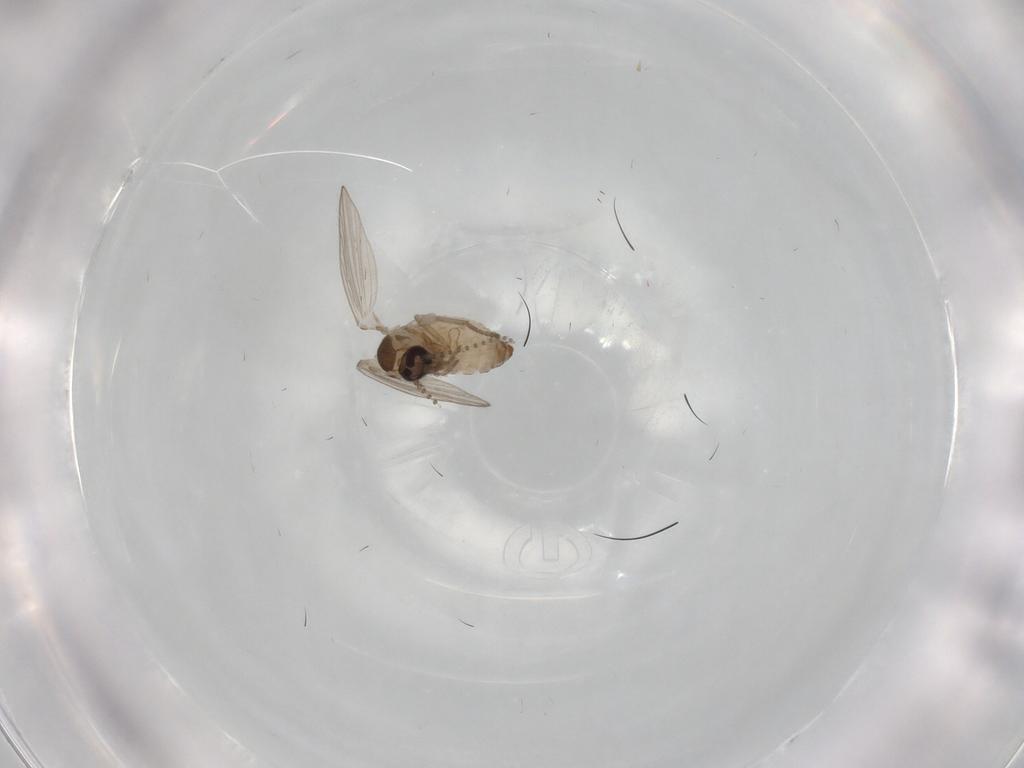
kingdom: Animalia
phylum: Arthropoda
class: Insecta
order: Diptera
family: Psychodidae
